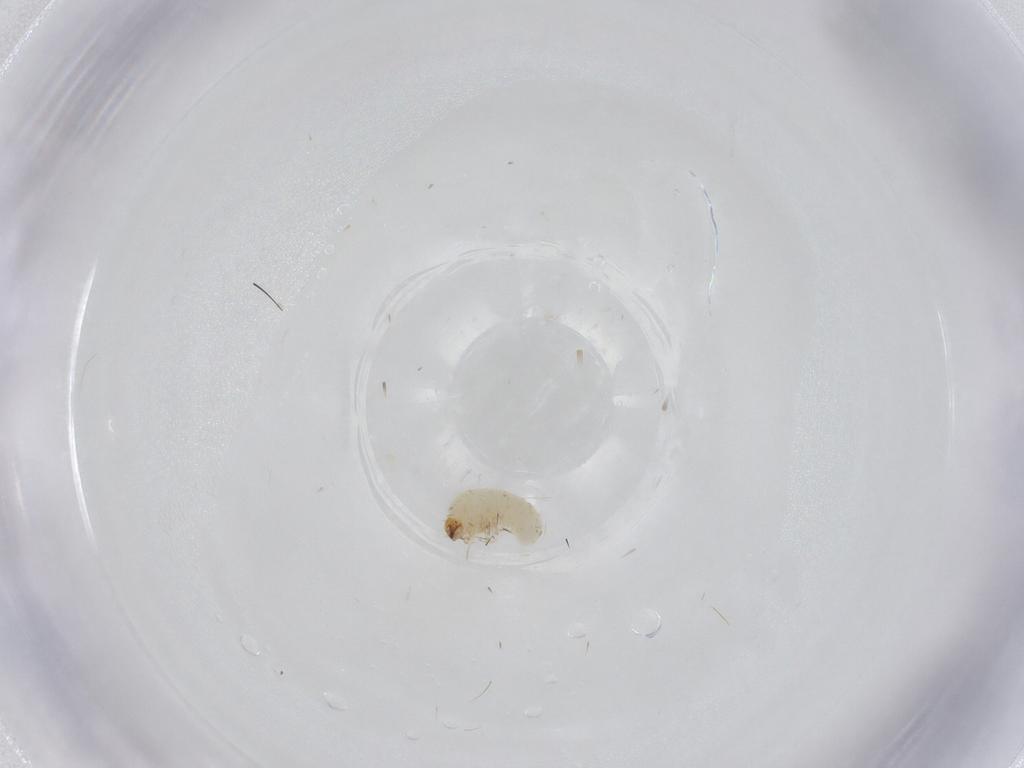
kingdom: Animalia
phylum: Arthropoda
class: Insecta
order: Coleoptera
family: Bostrichidae
